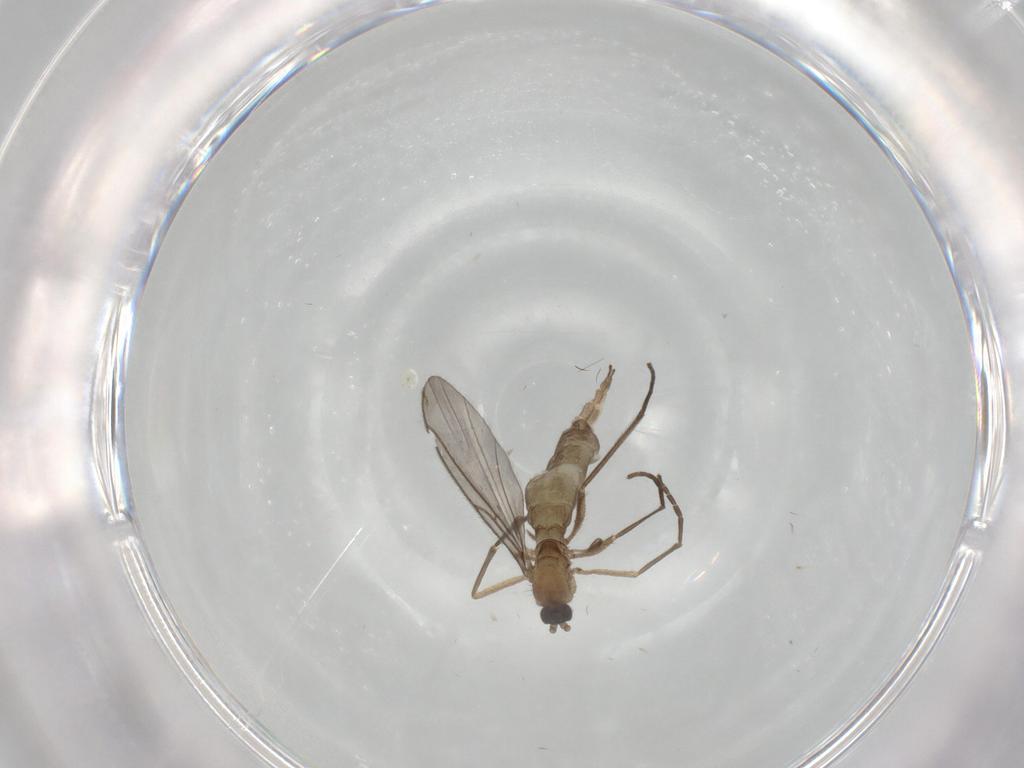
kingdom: Animalia
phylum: Arthropoda
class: Insecta
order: Diptera
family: Sciaridae
